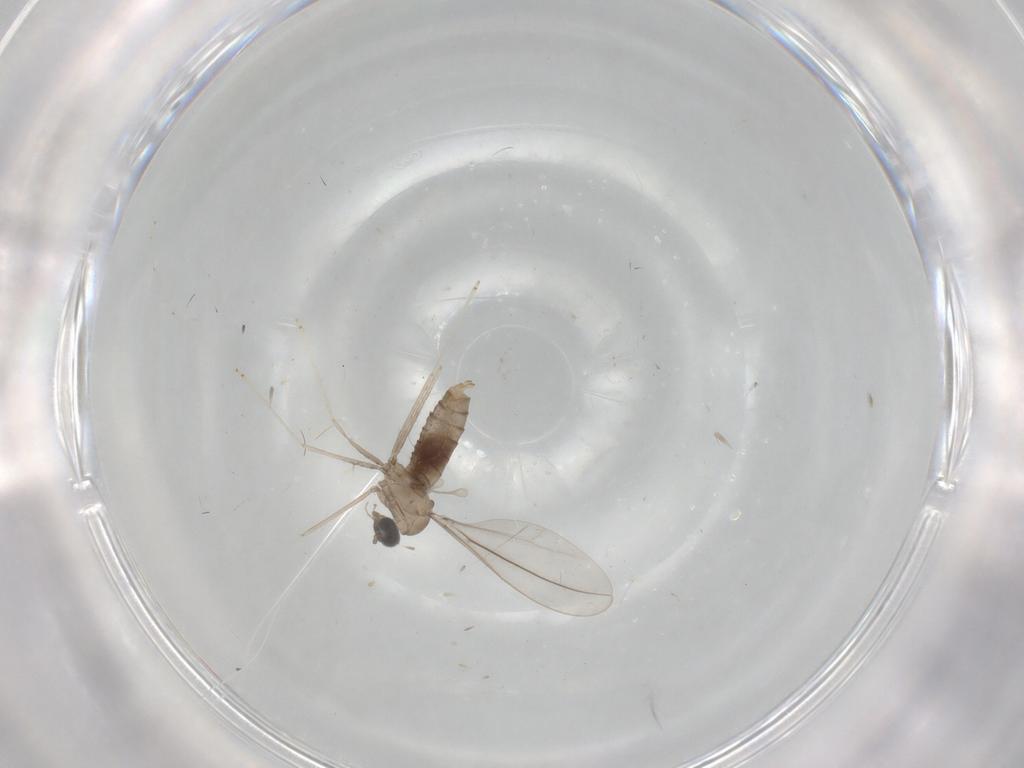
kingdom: Animalia
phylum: Arthropoda
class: Insecta
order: Diptera
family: Cecidomyiidae
